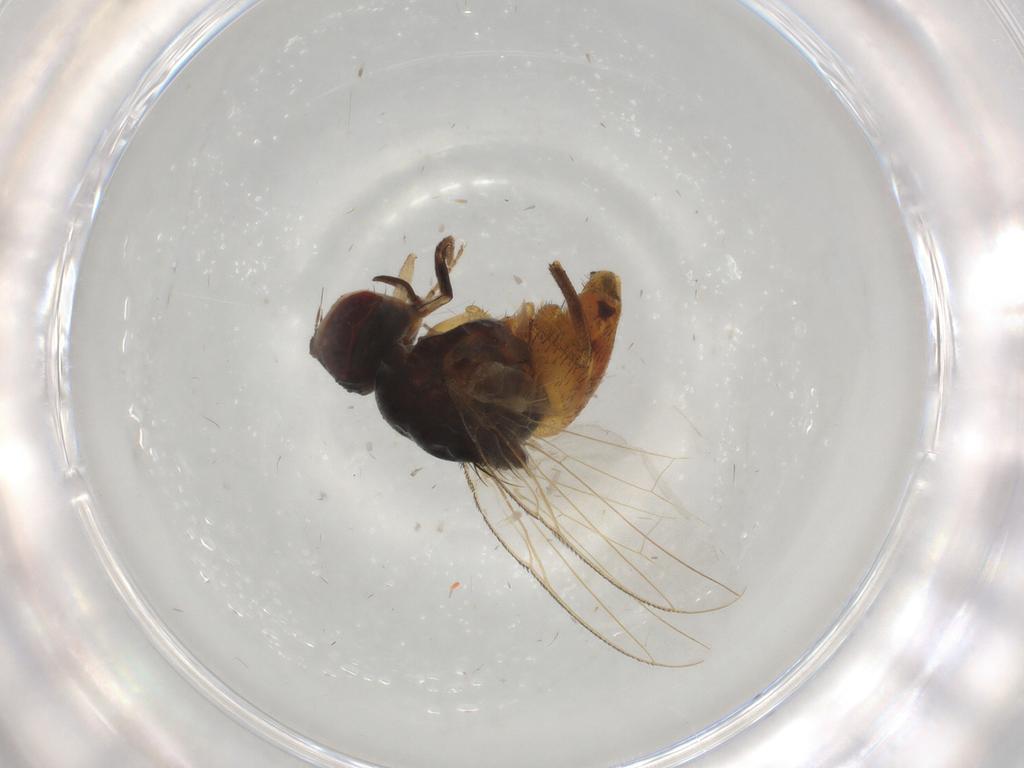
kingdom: Animalia
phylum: Arthropoda
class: Insecta
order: Diptera
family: Muscidae
